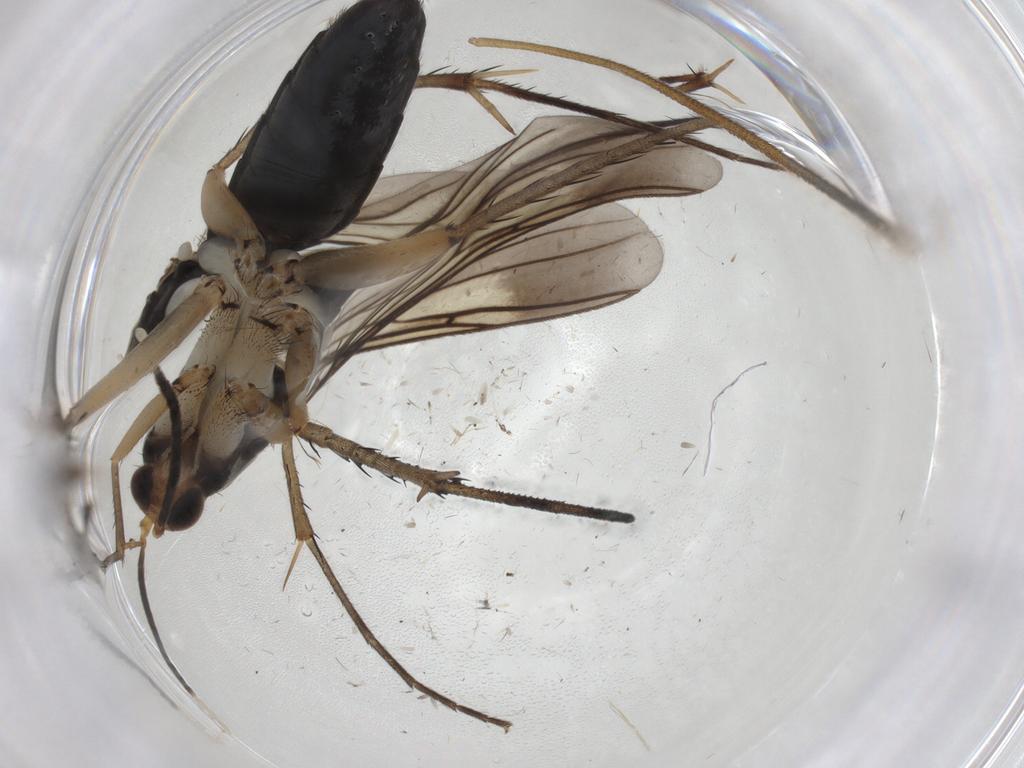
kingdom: Animalia
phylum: Arthropoda
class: Insecta
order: Diptera
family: Mycetophilidae
